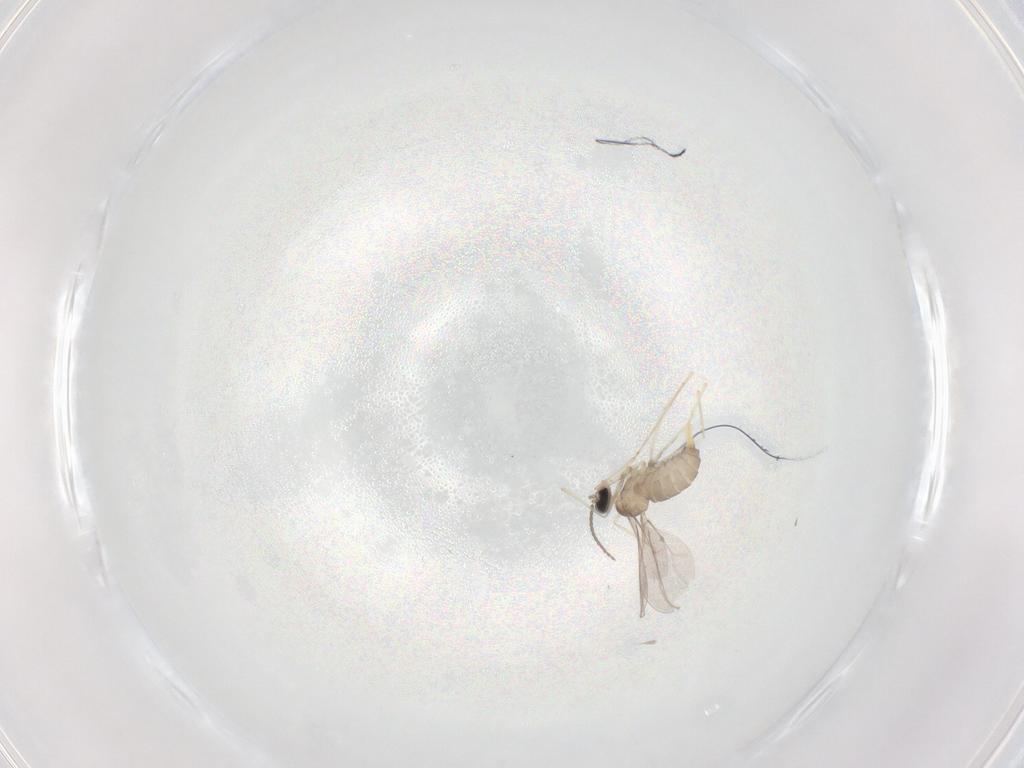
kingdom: Animalia
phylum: Arthropoda
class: Insecta
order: Diptera
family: Cecidomyiidae
